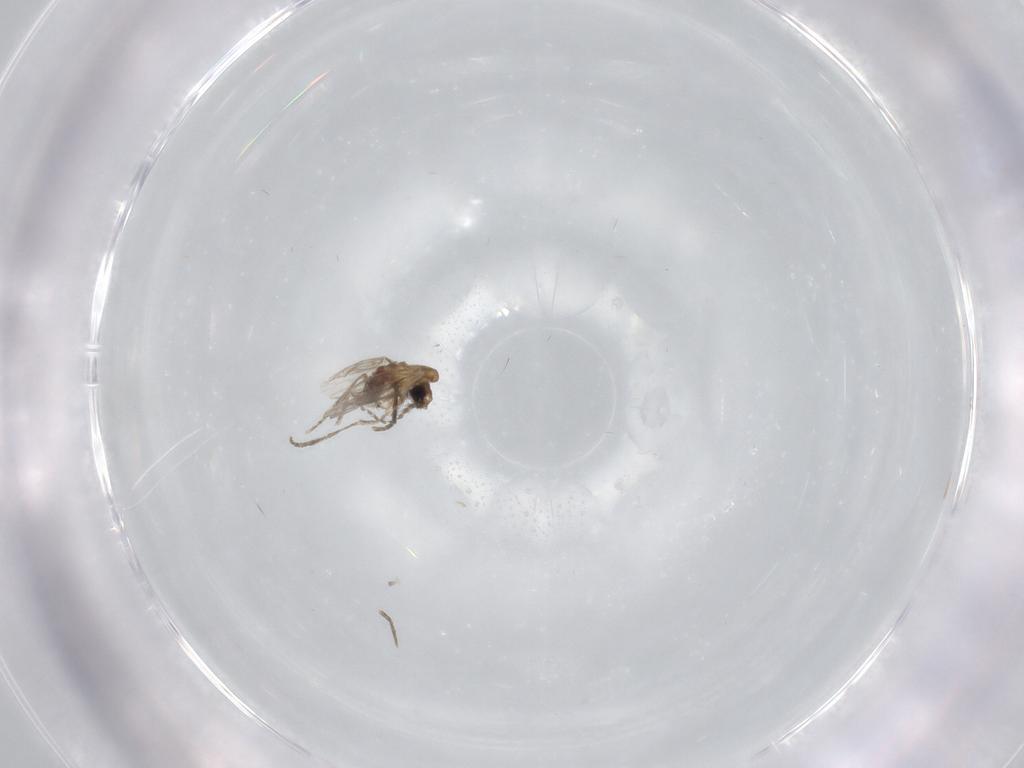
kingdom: Animalia
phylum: Arthropoda
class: Insecta
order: Diptera
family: Psychodidae
